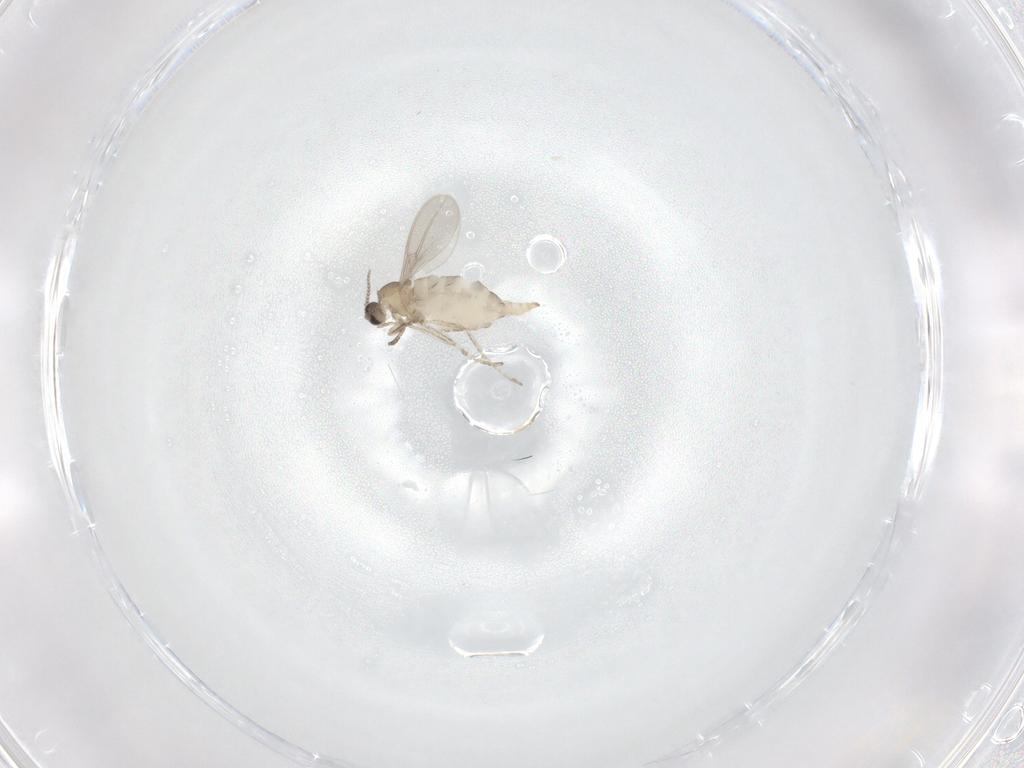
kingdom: Animalia
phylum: Arthropoda
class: Insecta
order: Diptera
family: Cecidomyiidae
